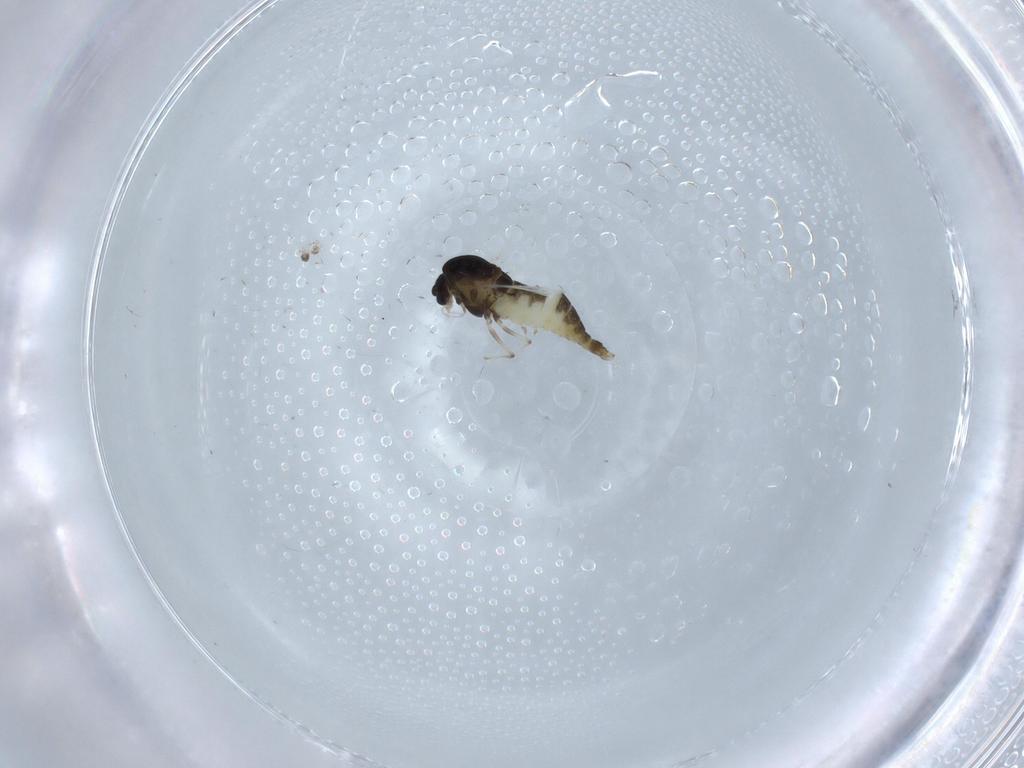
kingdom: Animalia
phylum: Arthropoda
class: Insecta
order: Diptera
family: Chironomidae
